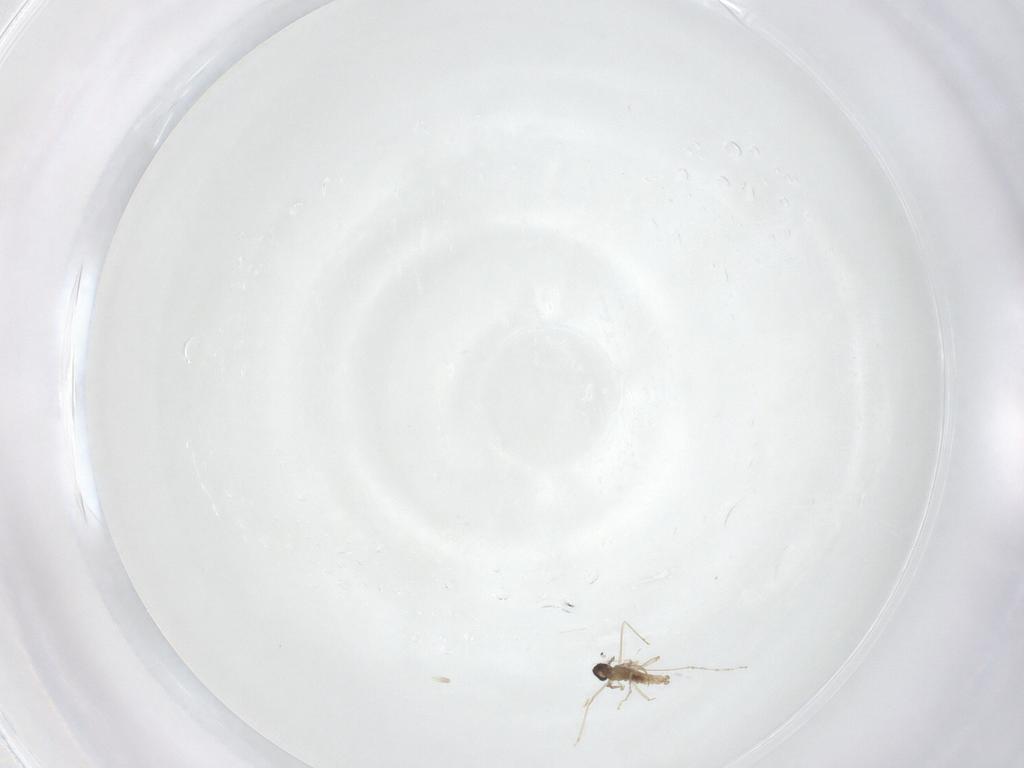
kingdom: Animalia
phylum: Arthropoda
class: Insecta
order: Diptera
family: Cecidomyiidae
